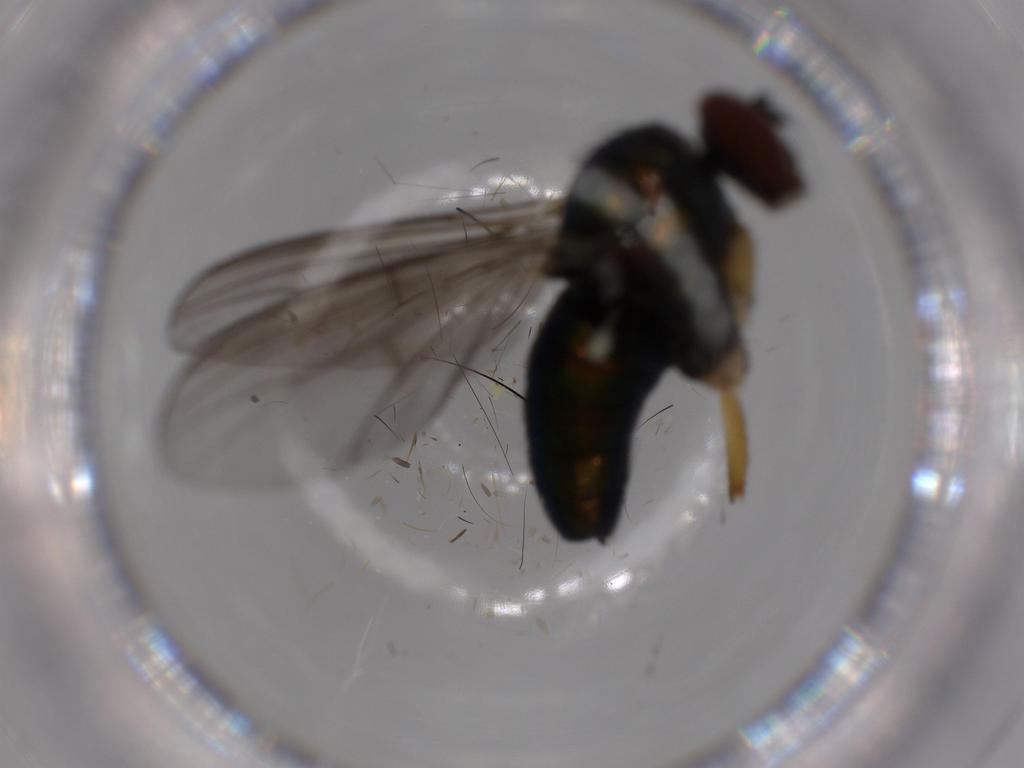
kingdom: Animalia
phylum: Arthropoda
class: Insecta
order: Diptera
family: Dolichopodidae
